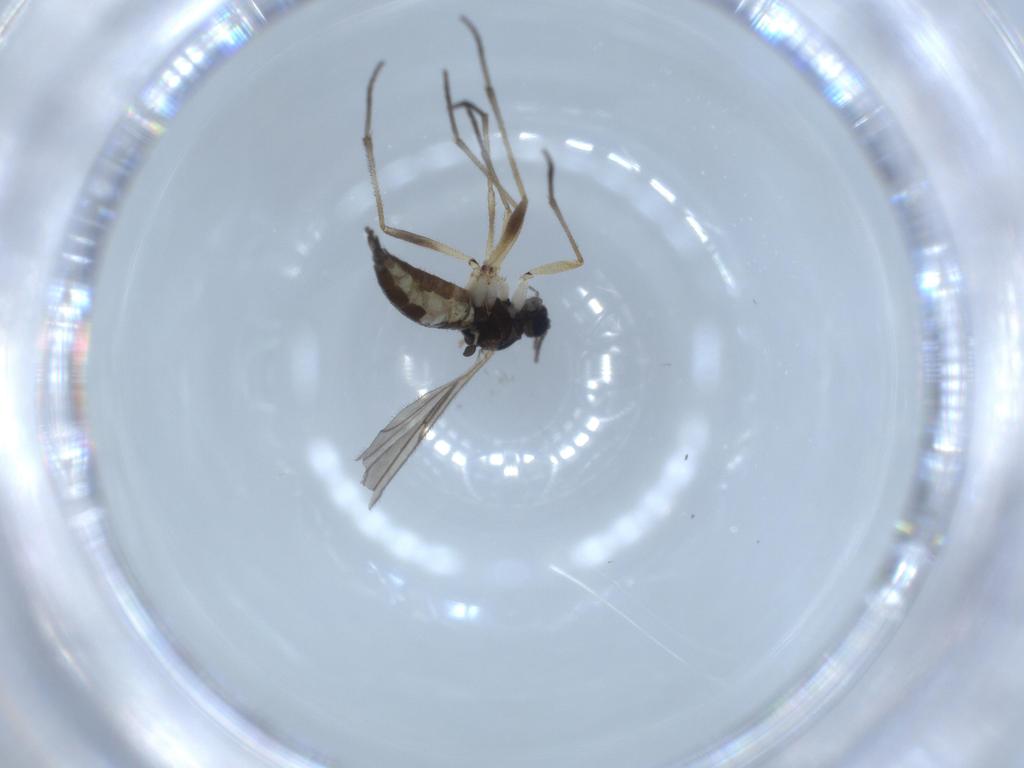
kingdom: Animalia
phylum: Arthropoda
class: Insecta
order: Diptera
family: Sciaridae
